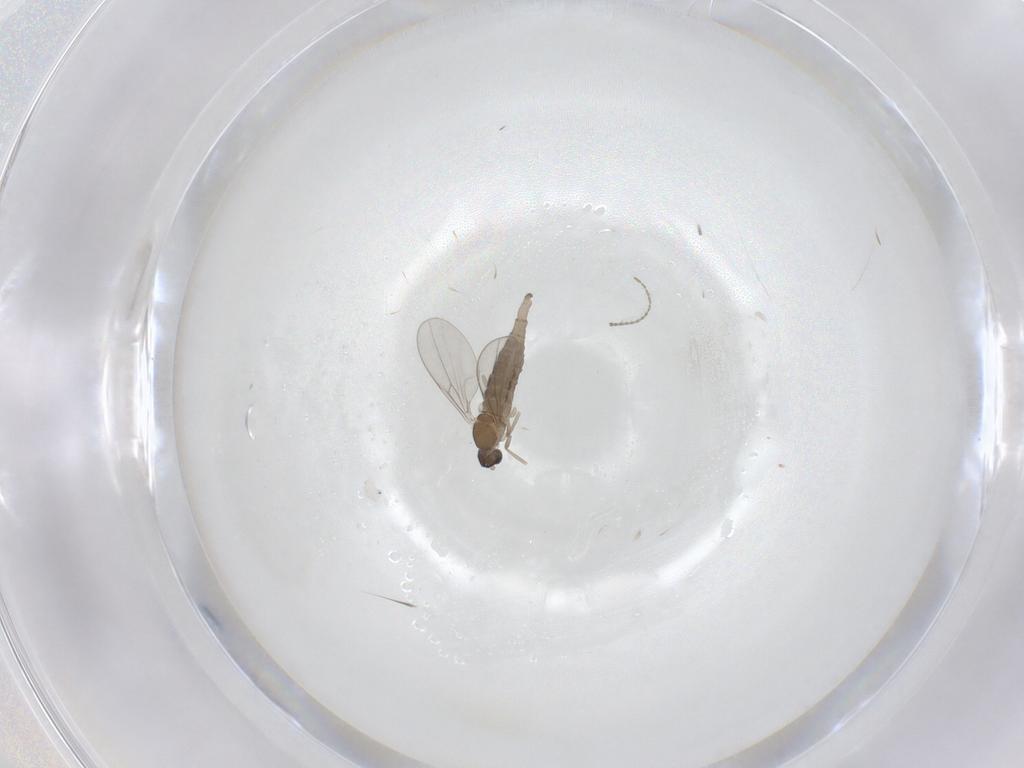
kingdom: Animalia
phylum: Arthropoda
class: Insecta
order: Diptera
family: Ceratopogonidae
